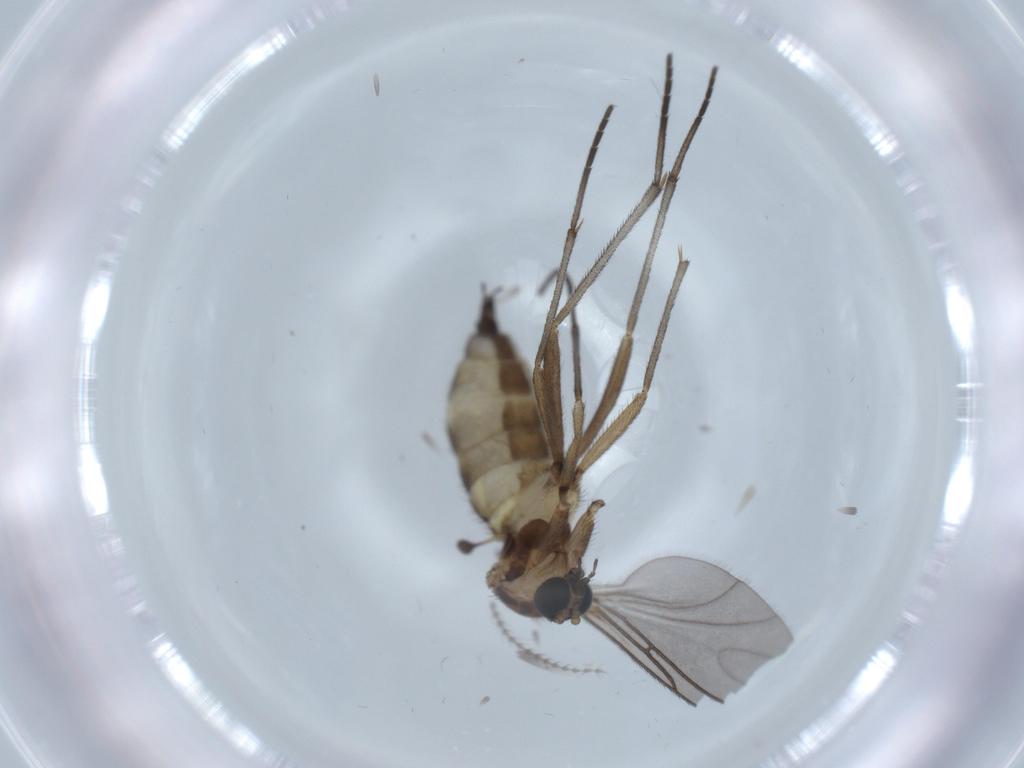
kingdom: Animalia
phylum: Arthropoda
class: Insecta
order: Diptera
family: Sciaridae
